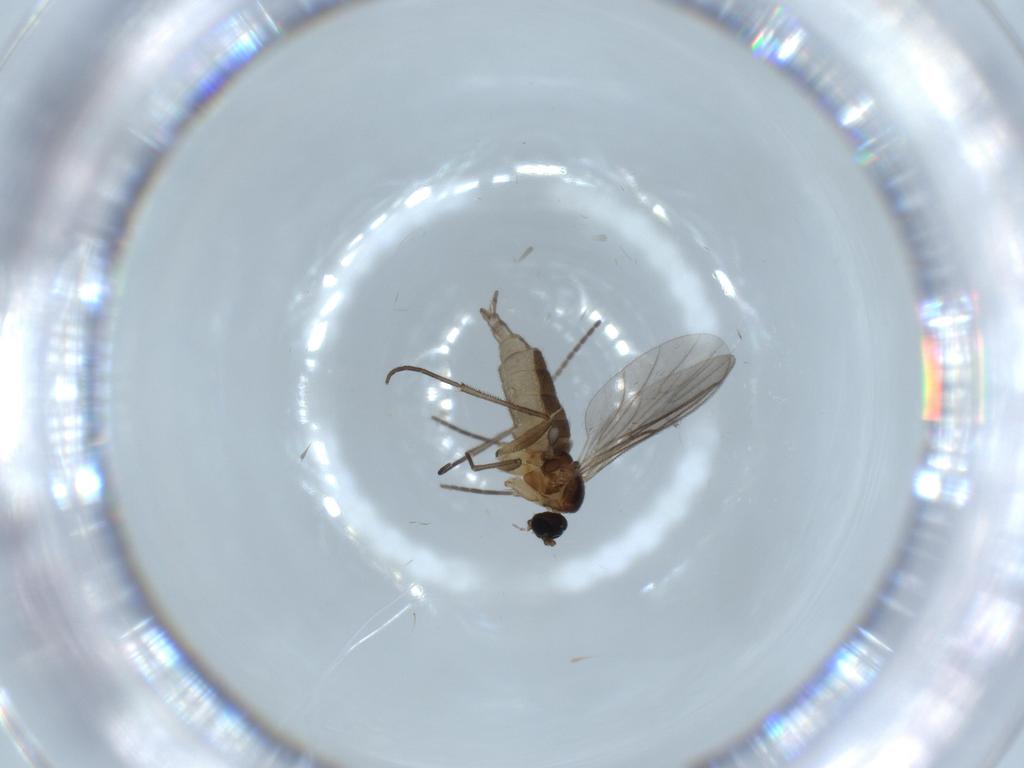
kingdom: Animalia
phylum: Arthropoda
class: Insecta
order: Diptera
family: Sciaridae
